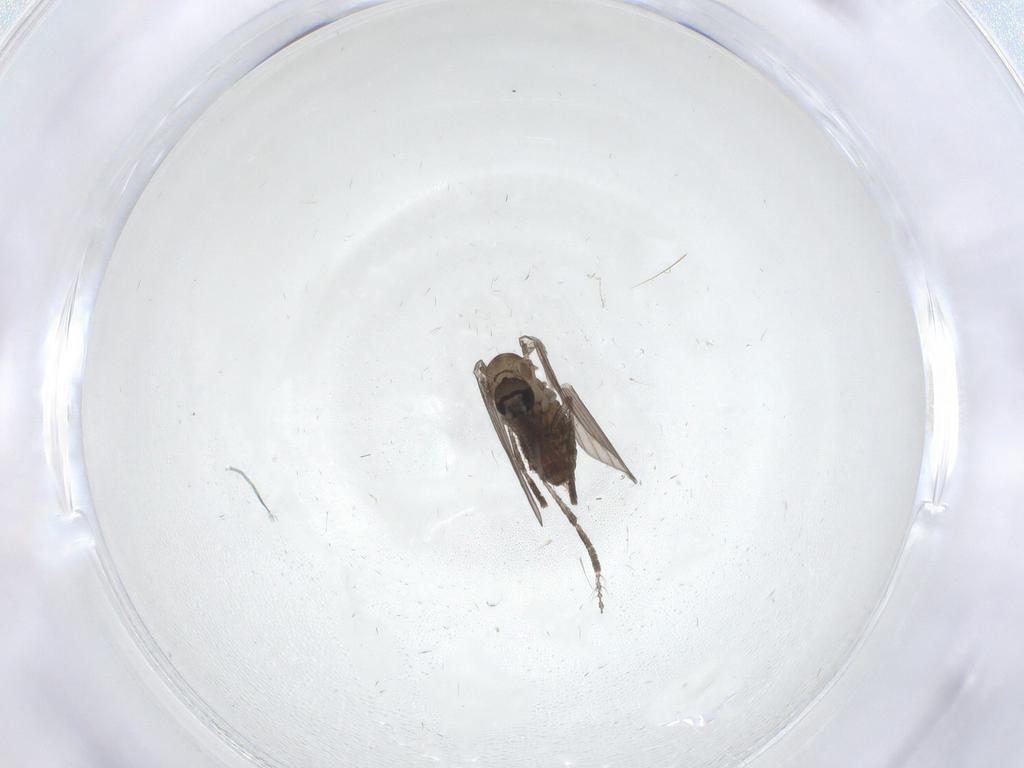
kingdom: Animalia
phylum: Arthropoda
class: Insecta
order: Diptera
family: Psychodidae
